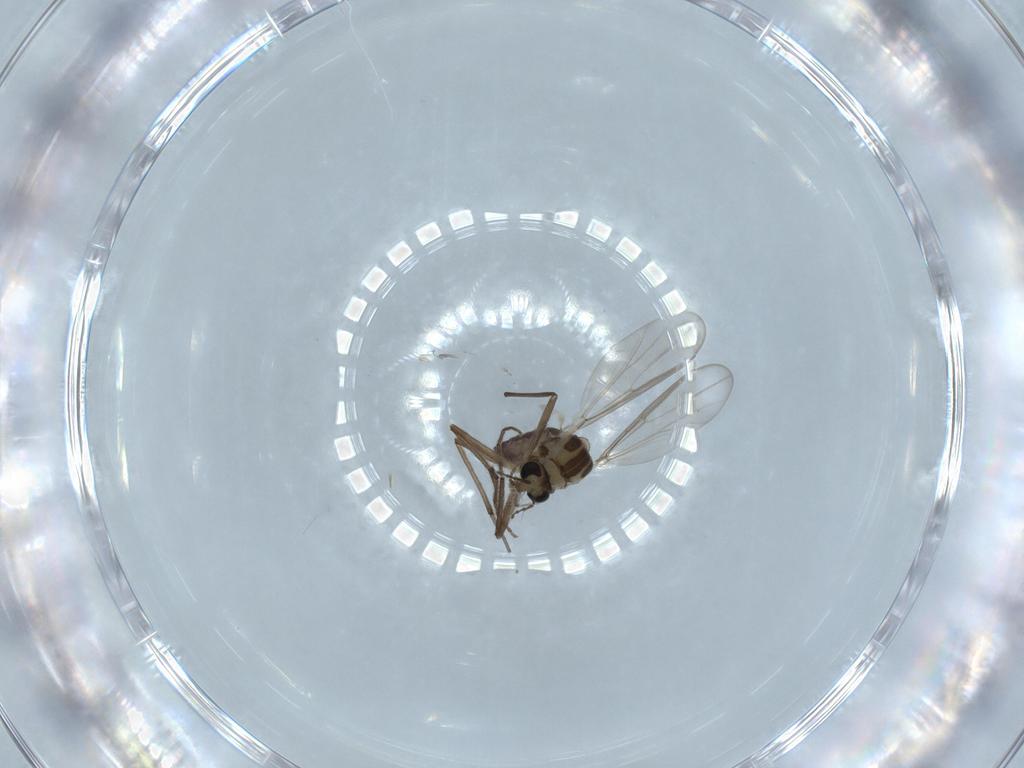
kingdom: Animalia
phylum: Arthropoda
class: Insecta
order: Diptera
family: Chironomidae
